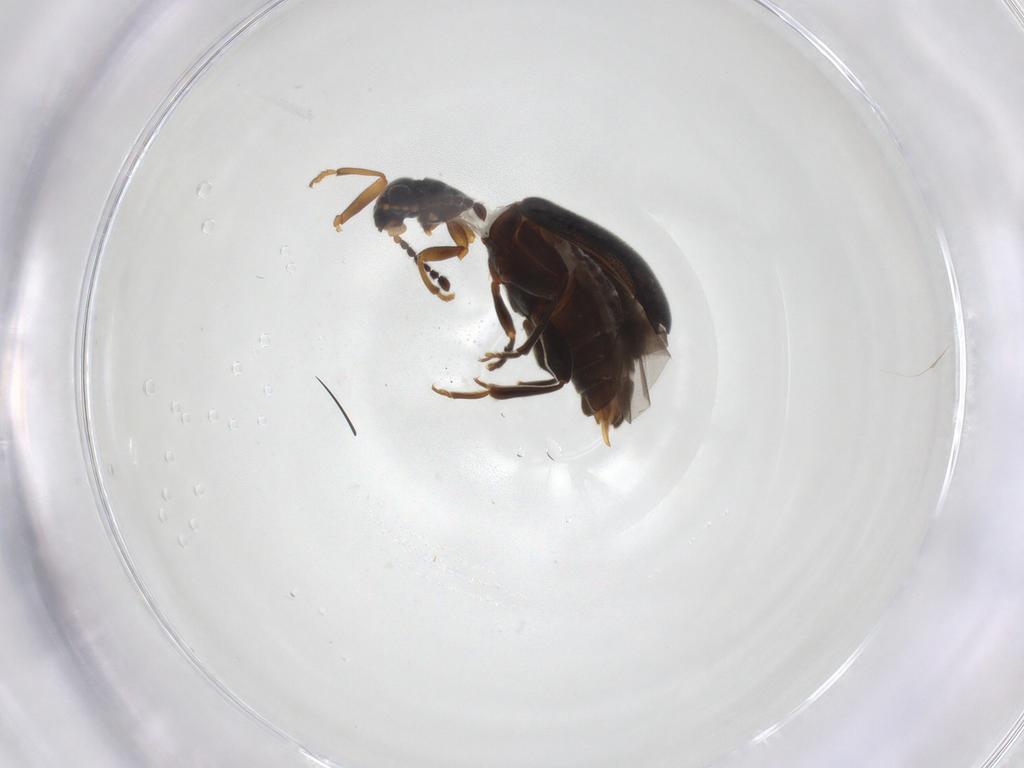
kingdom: Animalia
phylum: Arthropoda
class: Insecta
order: Coleoptera
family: Aderidae
